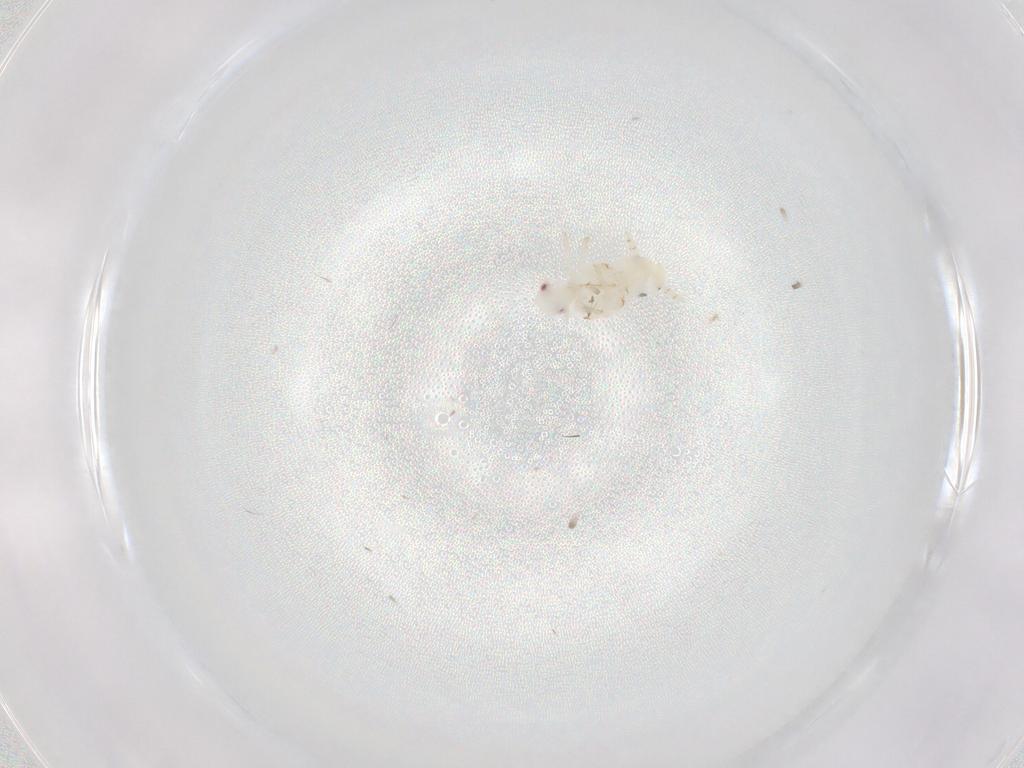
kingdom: Animalia
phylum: Arthropoda
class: Insecta
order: Hemiptera
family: Flatidae
